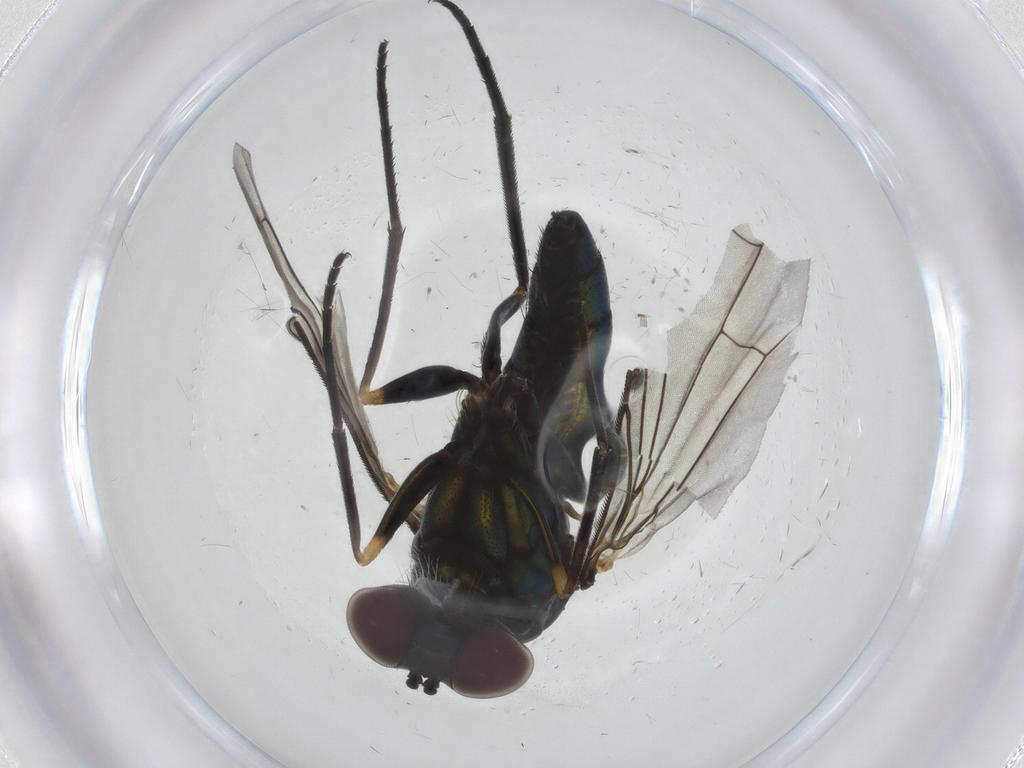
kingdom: Animalia
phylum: Arthropoda
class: Insecta
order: Diptera
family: Dolichopodidae
